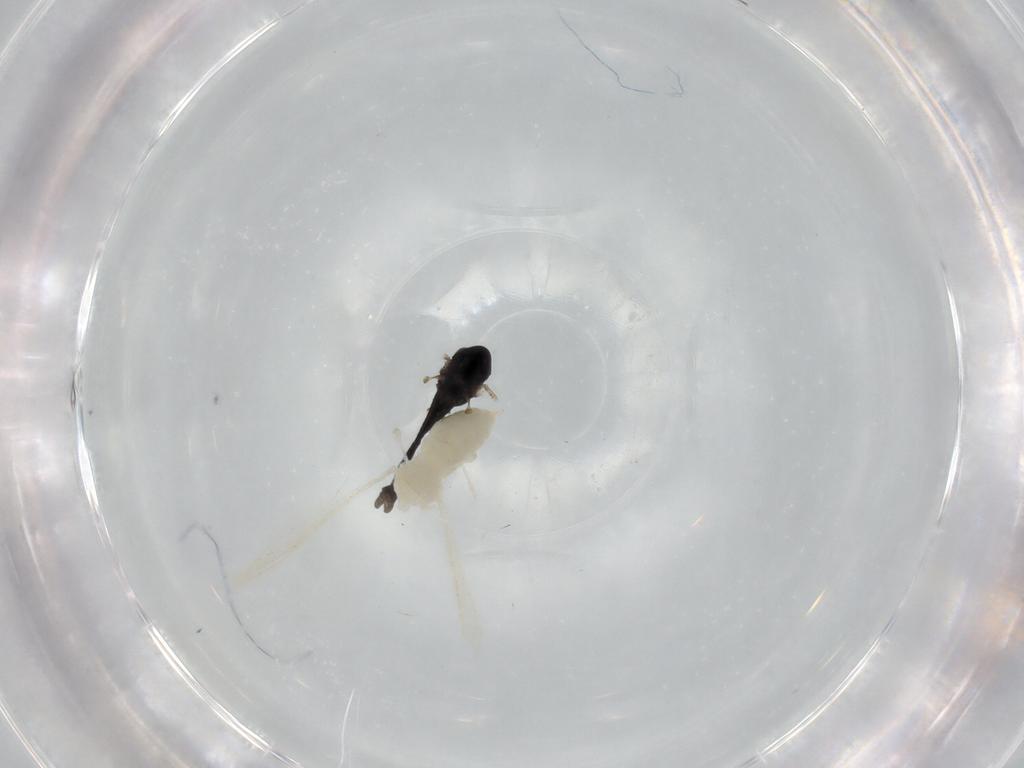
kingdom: Animalia
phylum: Arthropoda
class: Insecta
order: Diptera
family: Cecidomyiidae
